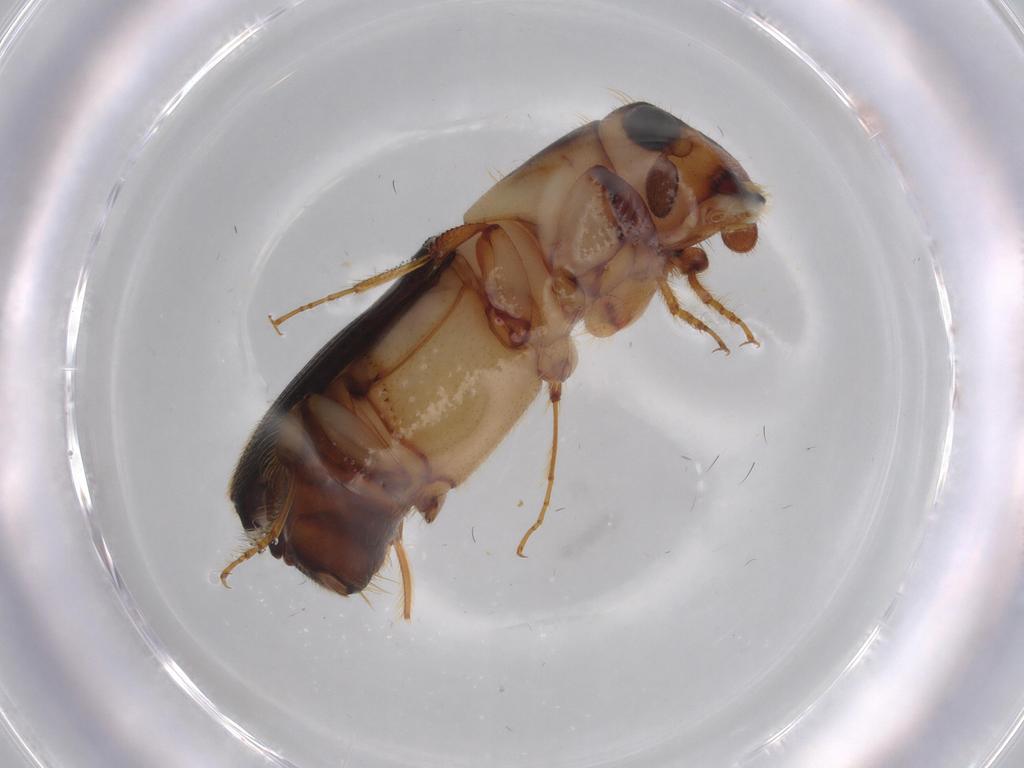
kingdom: Animalia
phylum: Arthropoda
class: Insecta
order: Coleoptera
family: Curculionidae
